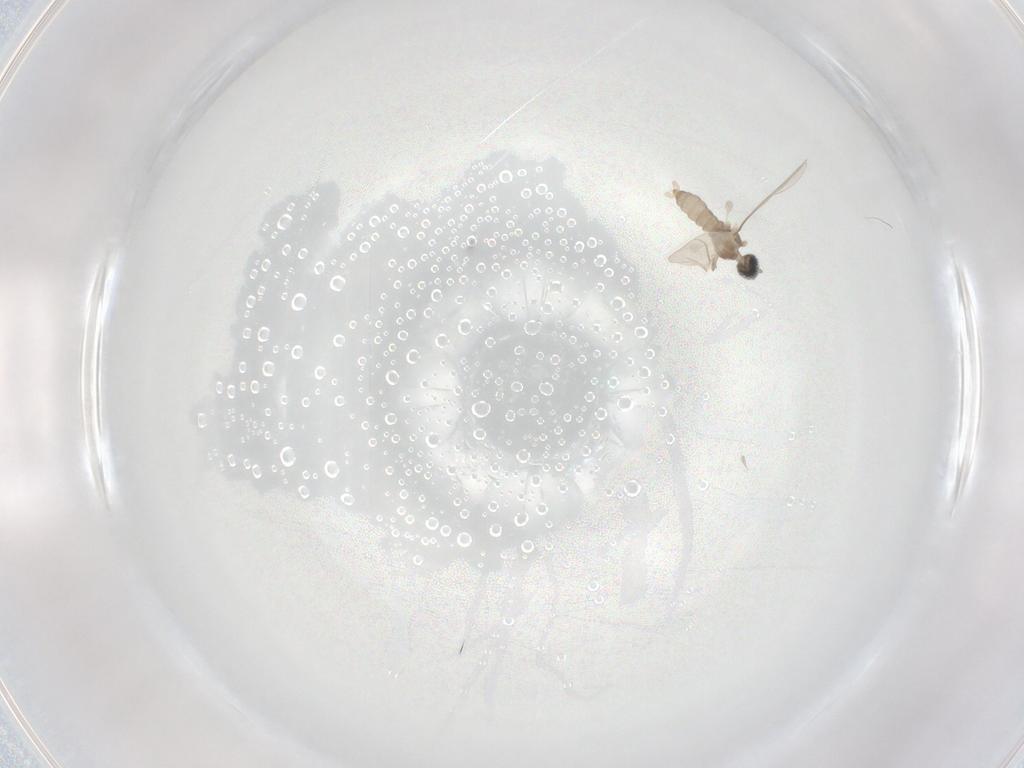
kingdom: Animalia
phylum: Arthropoda
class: Insecta
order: Diptera
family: Cecidomyiidae
